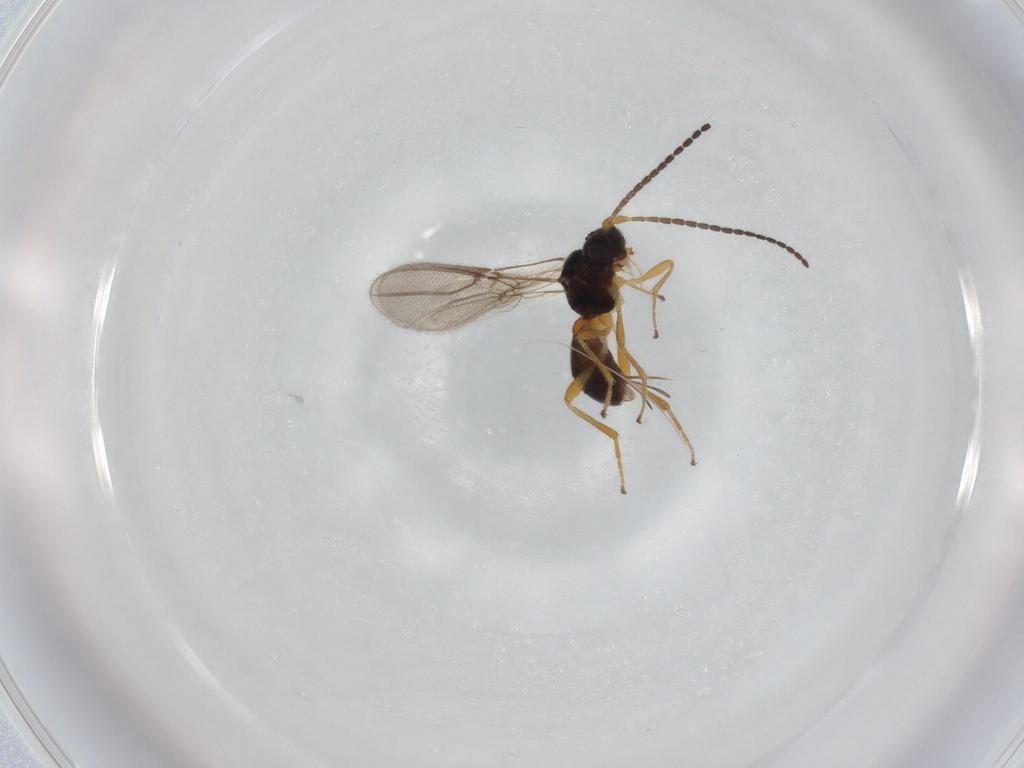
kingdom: Animalia
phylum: Arthropoda
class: Insecta
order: Hymenoptera
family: Braconidae
